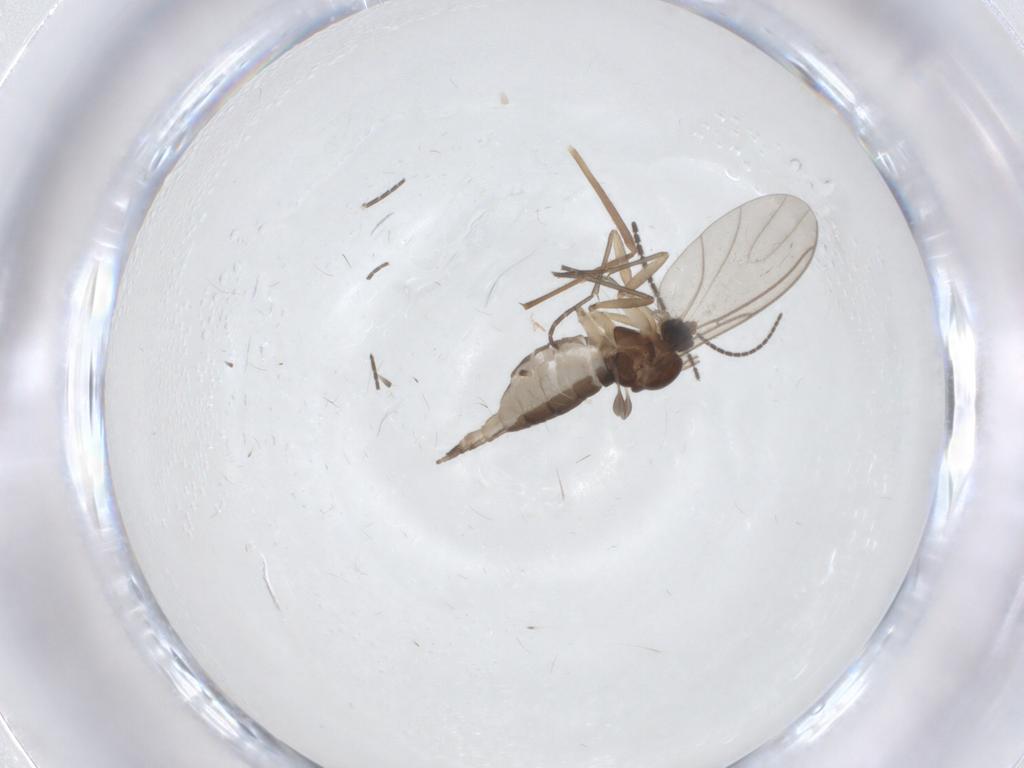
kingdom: Animalia
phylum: Arthropoda
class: Insecta
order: Diptera
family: Sciaridae
